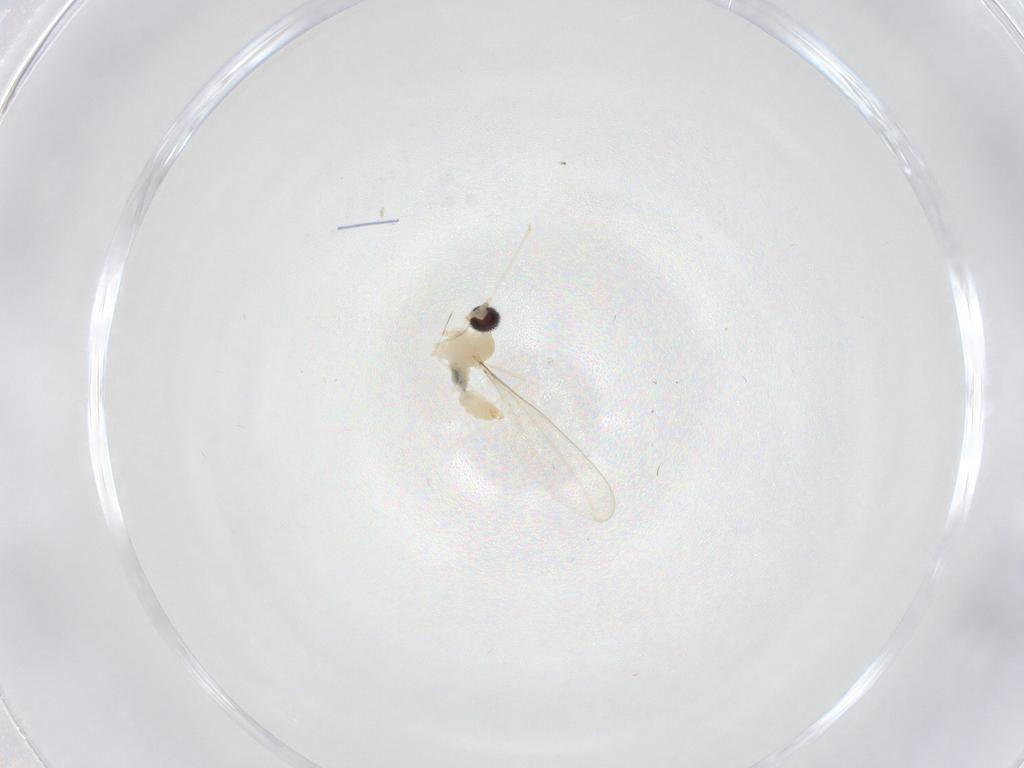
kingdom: Animalia
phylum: Arthropoda
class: Insecta
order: Diptera
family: Cecidomyiidae
